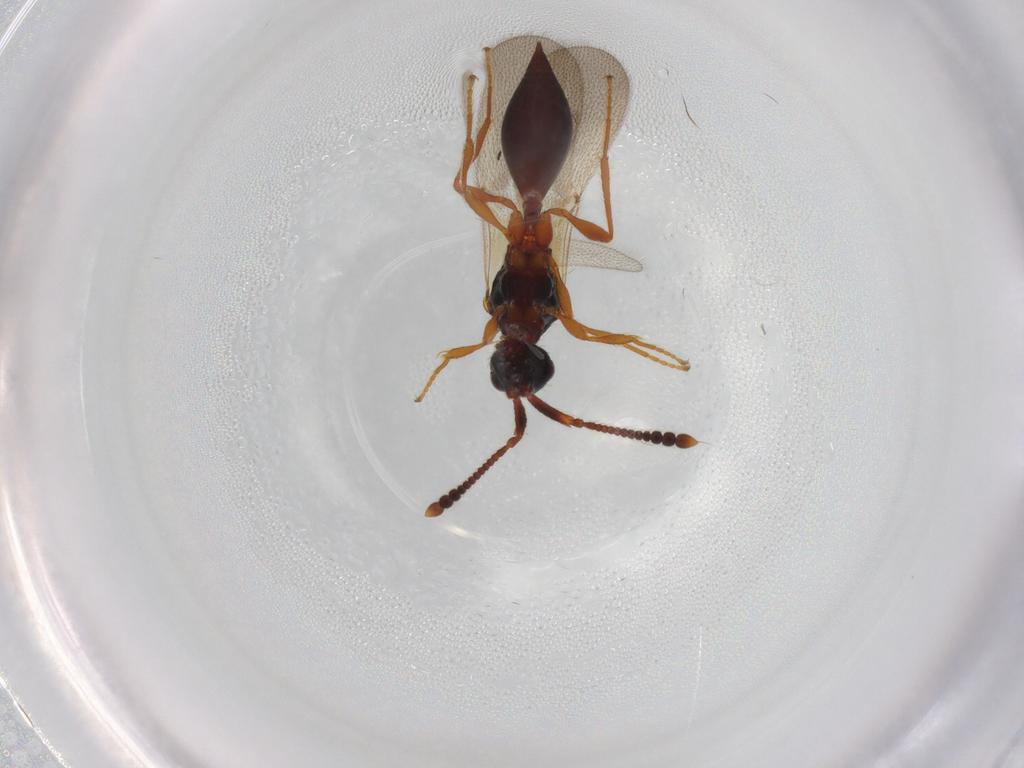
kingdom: Animalia
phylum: Arthropoda
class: Insecta
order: Hymenoptera
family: Diapriidae
